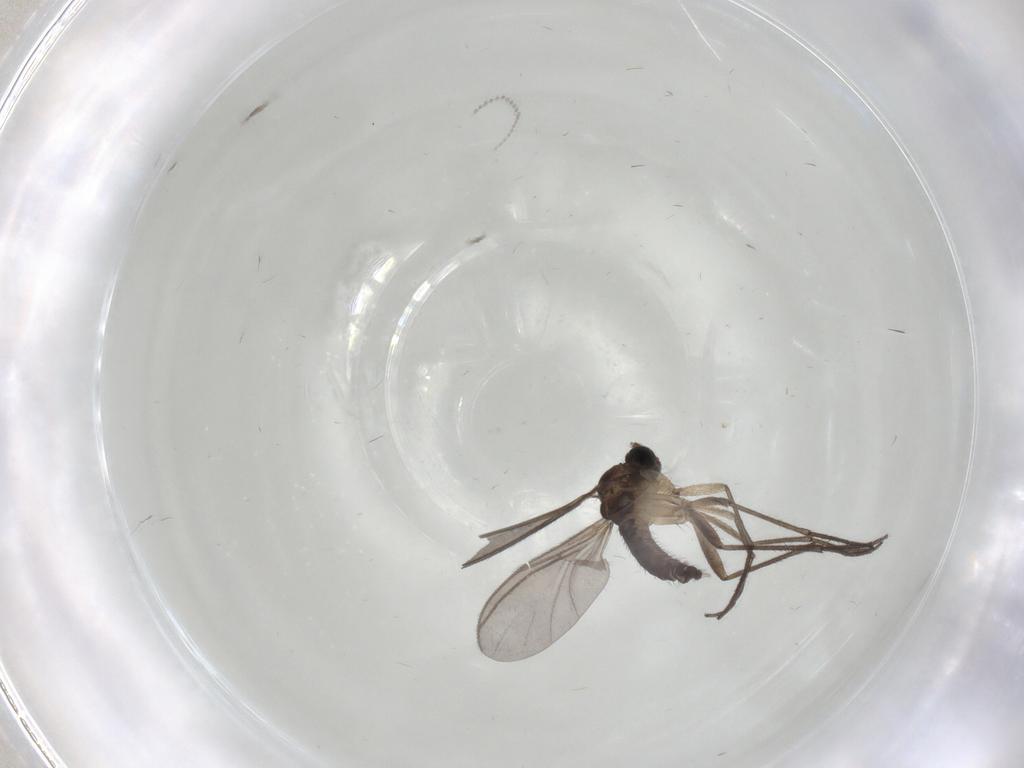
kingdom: Animalia
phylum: Arthropoda
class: Insecta
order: Diptera
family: Sciaridae
